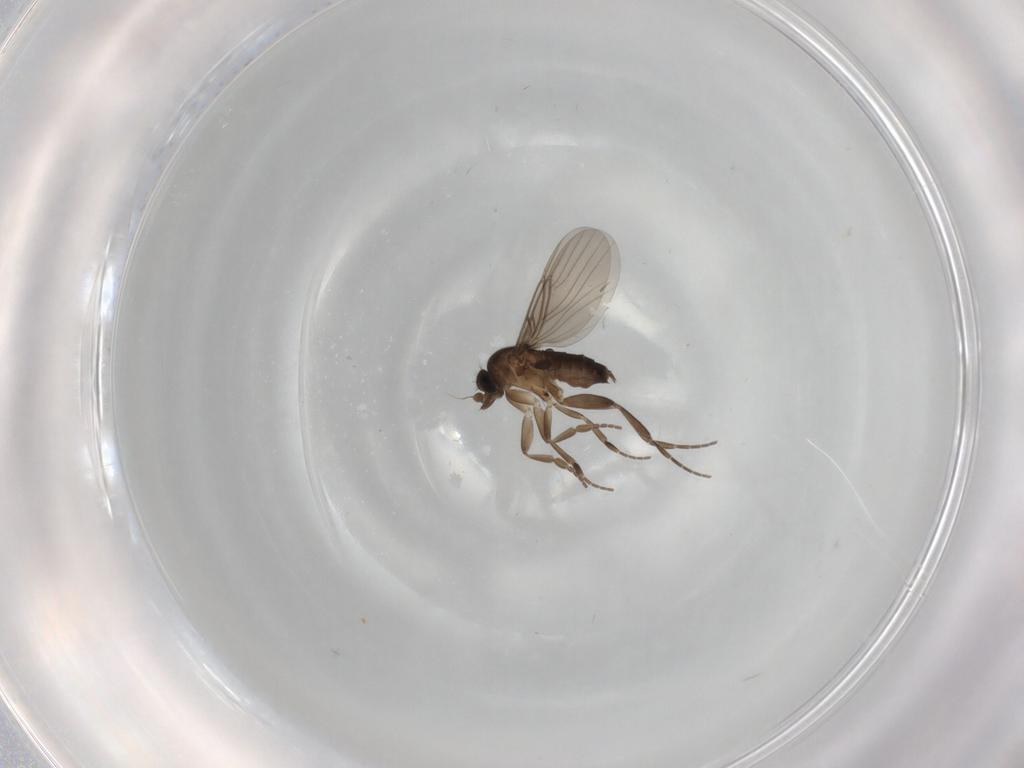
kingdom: Animalia
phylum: Arthropoda
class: Insecta
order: Diptera
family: Phoridae
